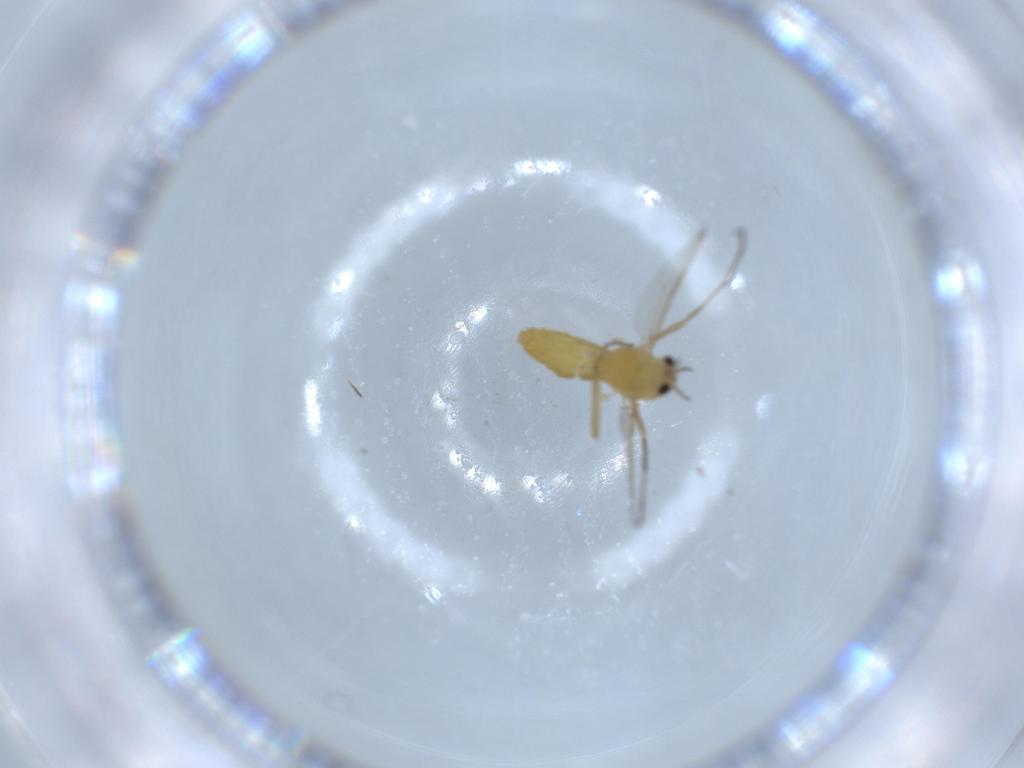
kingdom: Animalia
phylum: Arthropoda
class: Insecta
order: Diptera
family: Chironomidae
